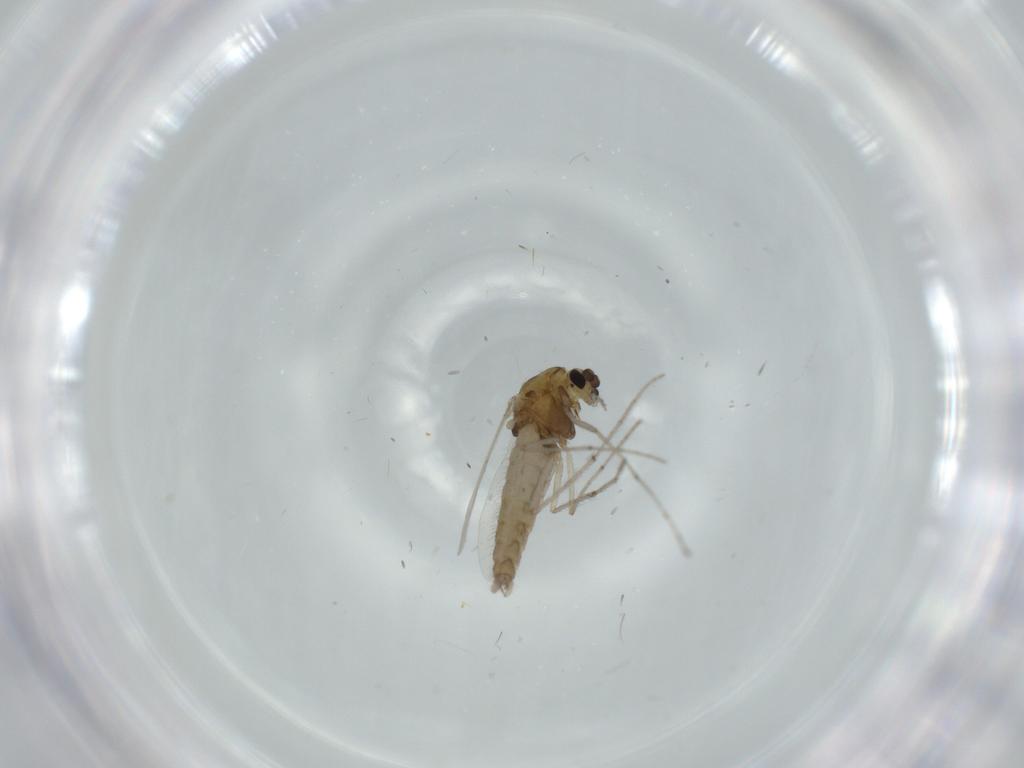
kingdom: Animalia
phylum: Arthropoda
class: Insecta
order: Diptera
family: Chironomidae
